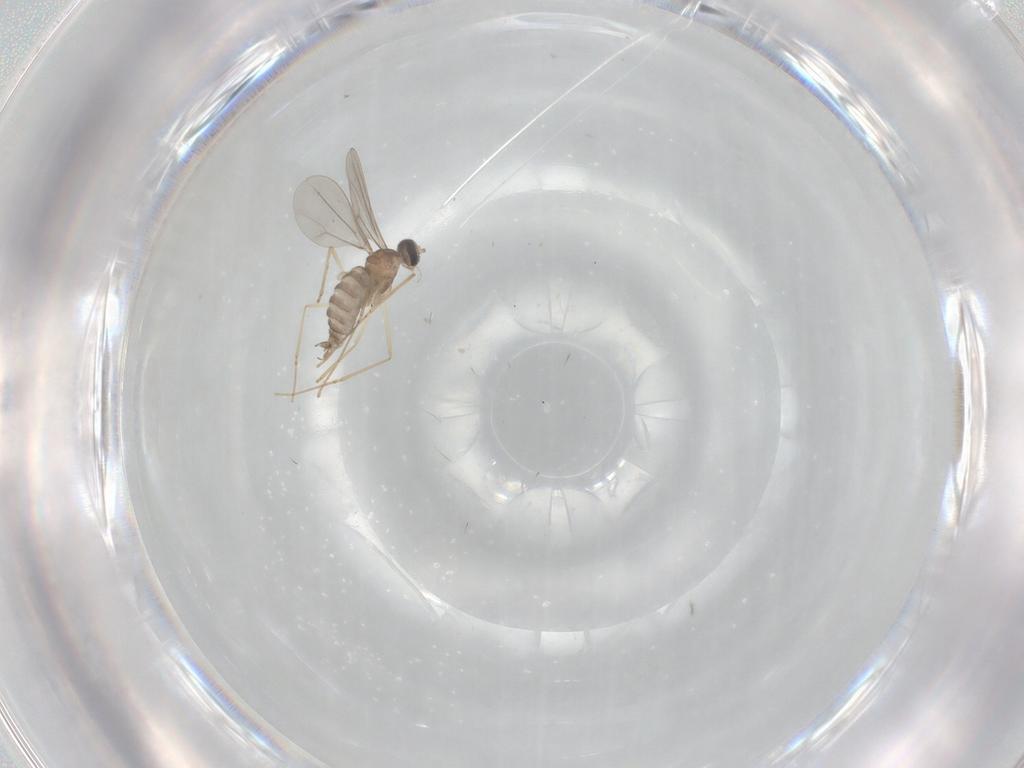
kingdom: Animalia
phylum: Arthropoda
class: Insecta
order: Diptera
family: Cecidomyiidae
